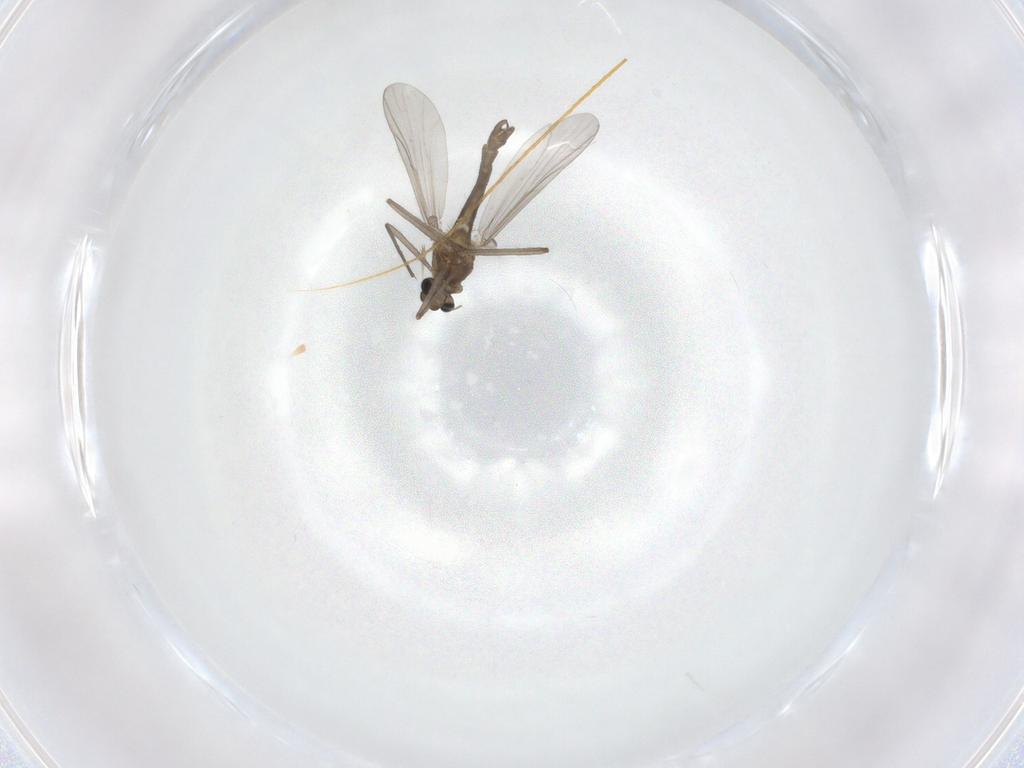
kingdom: Animalia
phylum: Arthropoda
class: Insecta
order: Diptera
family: Chironomidae
